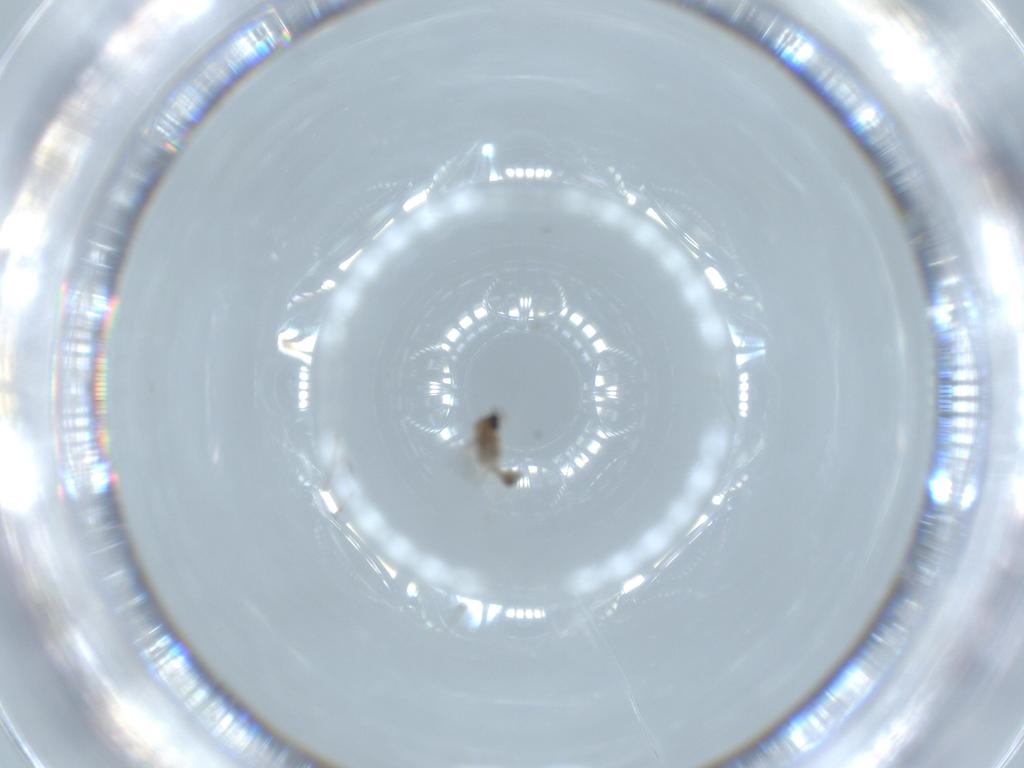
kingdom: Animalia
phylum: Arthropoda
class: Insecta
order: Diptera
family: Cecidomyiidae
